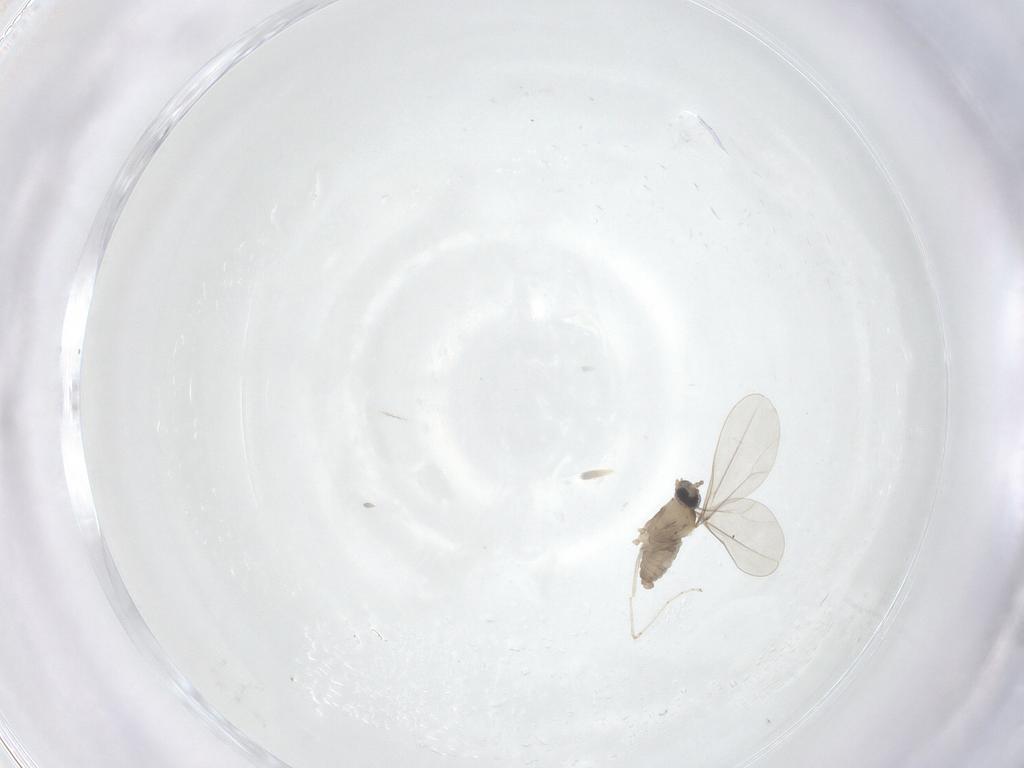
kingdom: Animalia
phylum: Arthropoda
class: Insecta
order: Diptera
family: Cecidomyiidae
